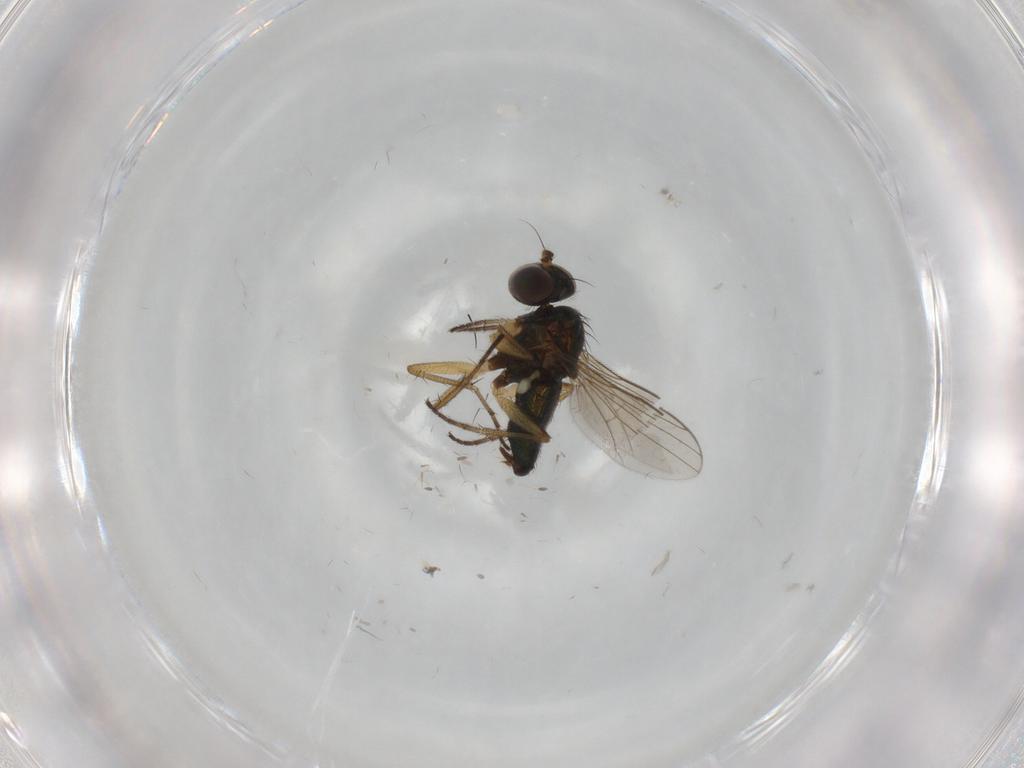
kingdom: Animalia
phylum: Arthropoda
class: Insecta
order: Diptera
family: Dolichopodidae
